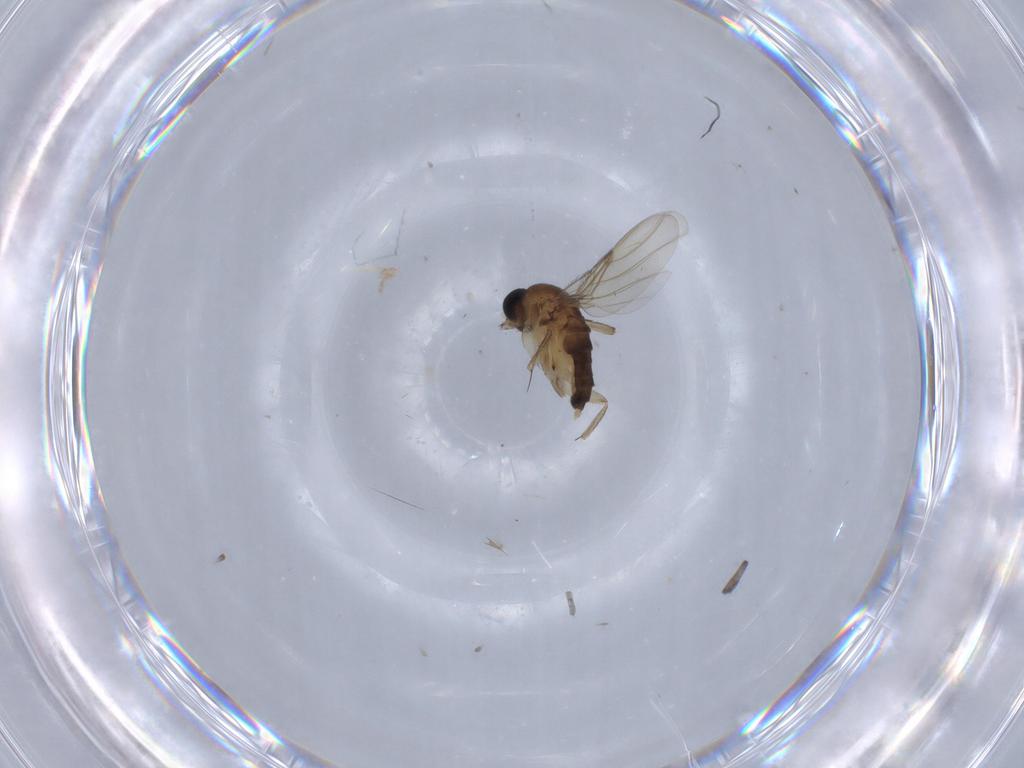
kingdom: Animalia
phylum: Arthropoda
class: Insecta
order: Diptera
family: Phoridae
